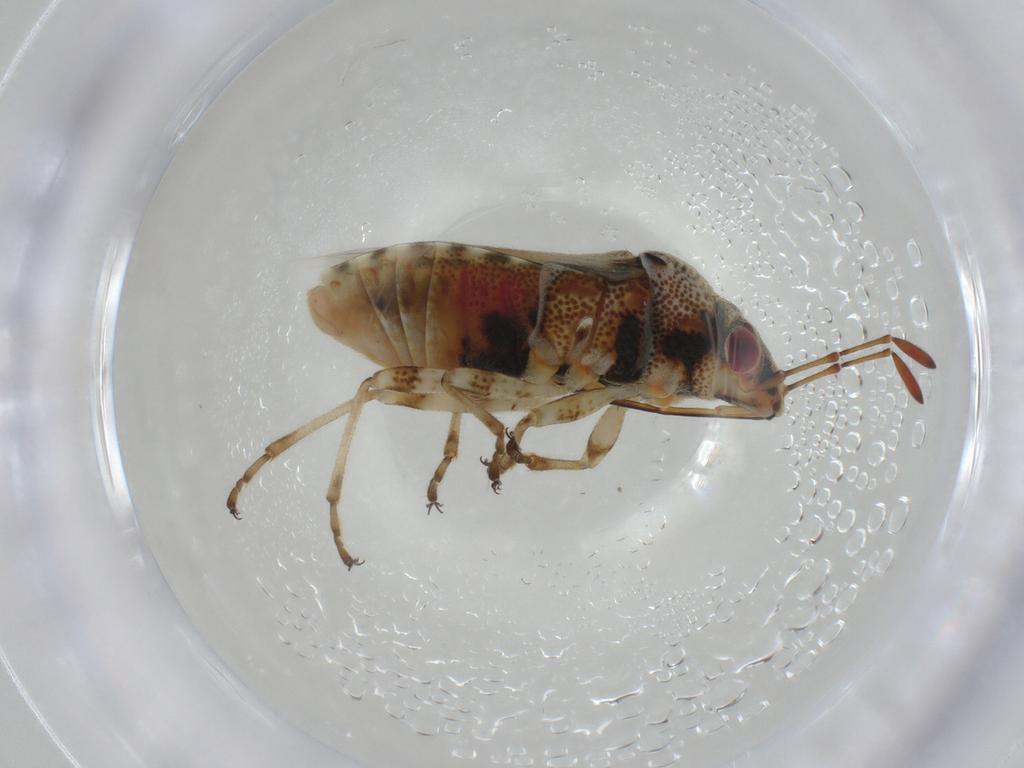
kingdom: Animalia
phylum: Arthropoda
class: Insecta
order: Hemiptera
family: Lygaeidae
